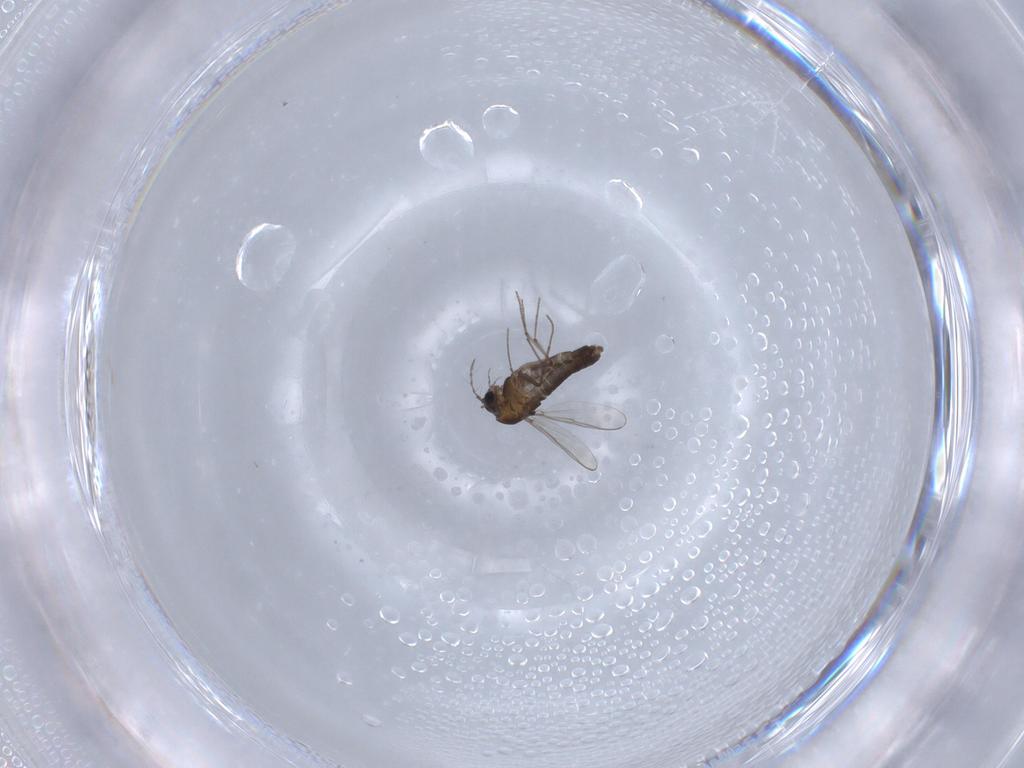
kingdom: Animalia
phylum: Arthropoda
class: Insecta
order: Diptera
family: Chironomidae
